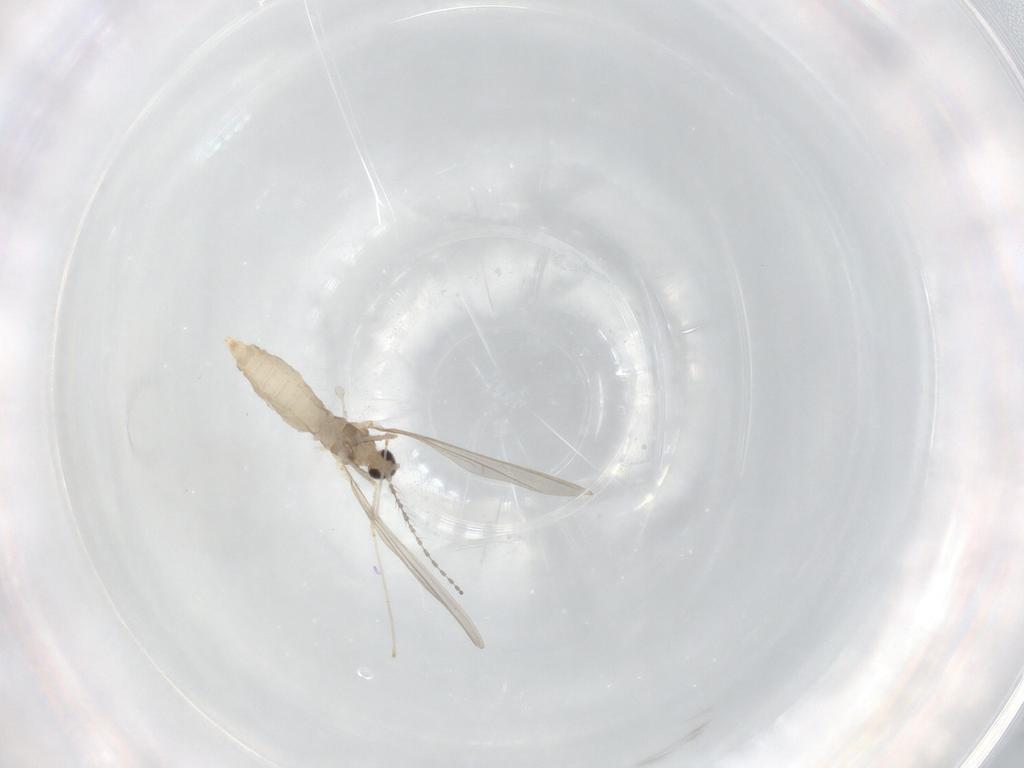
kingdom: Animalia
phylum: Arthropoda
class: Insecta
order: Diptera
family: Cecidomyiidae
